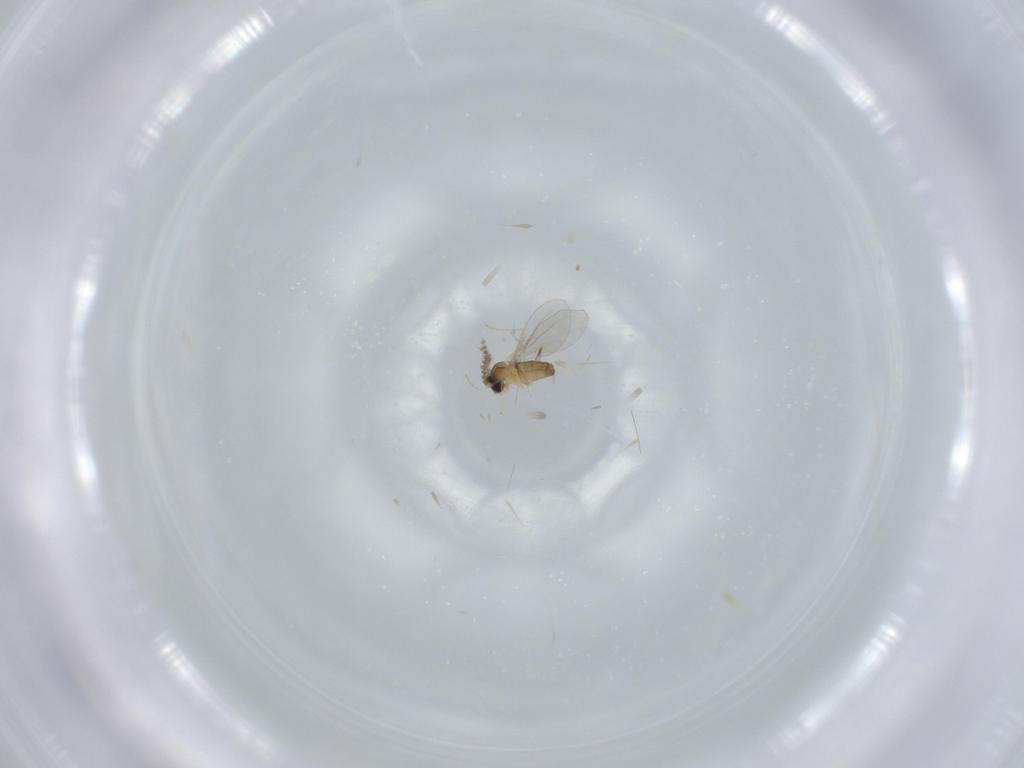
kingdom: Animalia
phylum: Arthropoda
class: Insecta
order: Diptera
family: Cecidomyiidae
